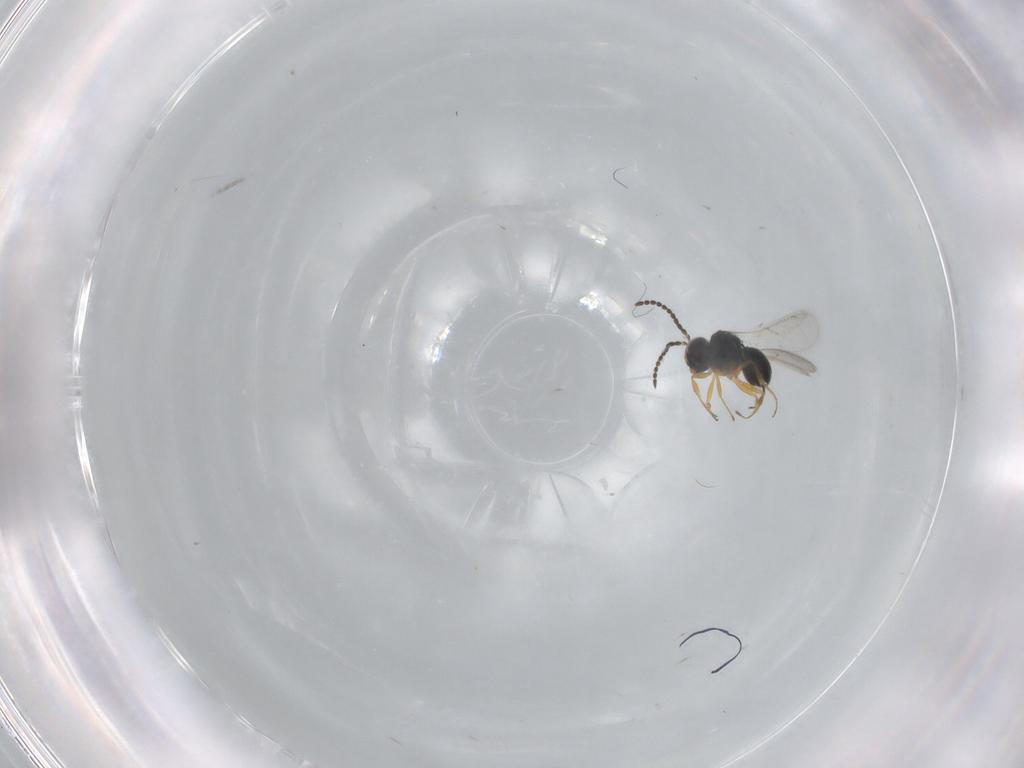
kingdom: Animalia
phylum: Arthropoda
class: Insecta
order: Hymenoptera
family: Scelionidae
